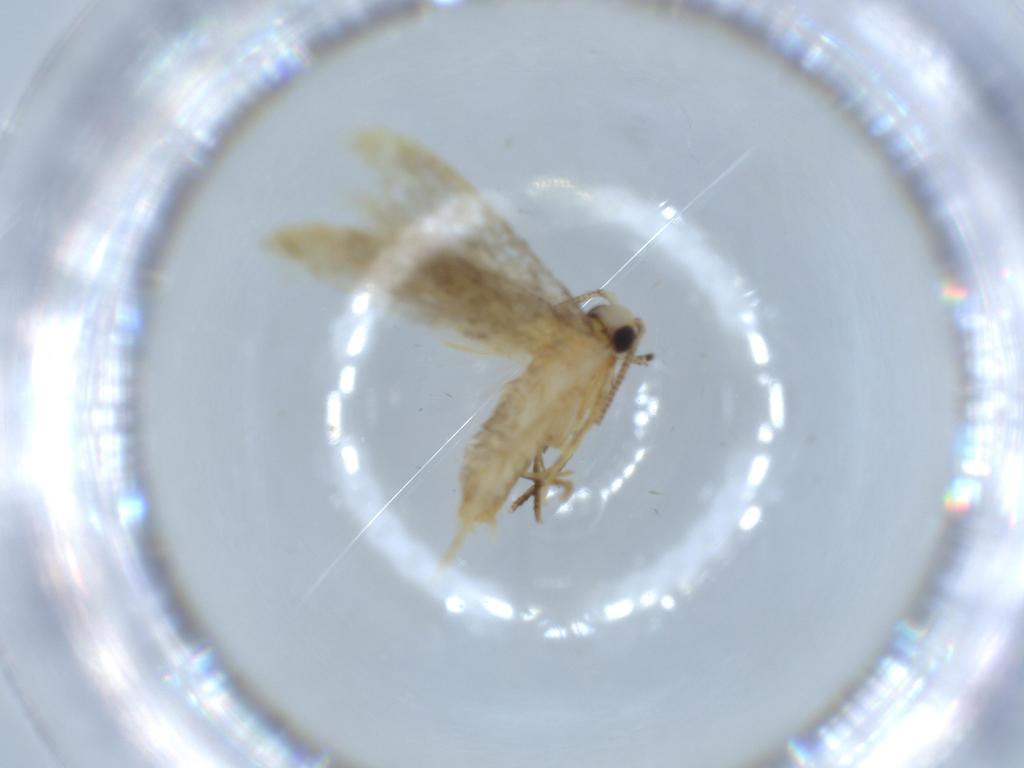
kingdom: Animalia
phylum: Arthropoda
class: Insecta
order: Lepidoptera
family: Tineidae
